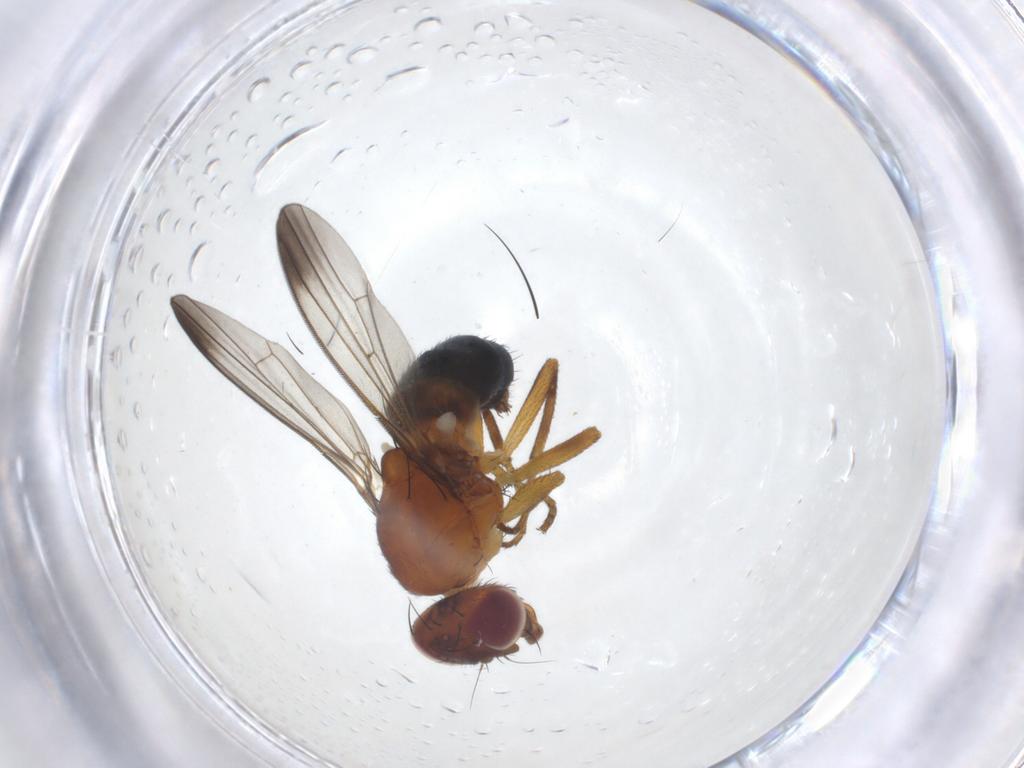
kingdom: Animalia
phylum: Arthropoda
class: Insecta
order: Diptera
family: Piophilidae
